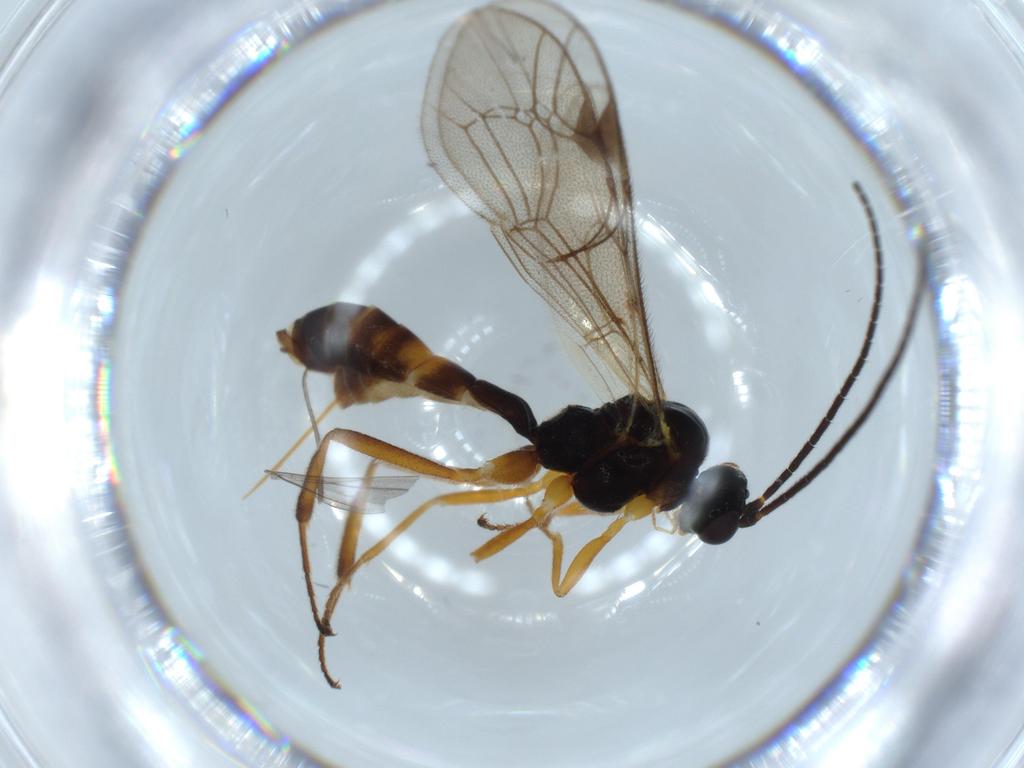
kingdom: Animalia
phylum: Arthropoda
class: Insecta
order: Hymenoptera
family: Ichneumonidae
